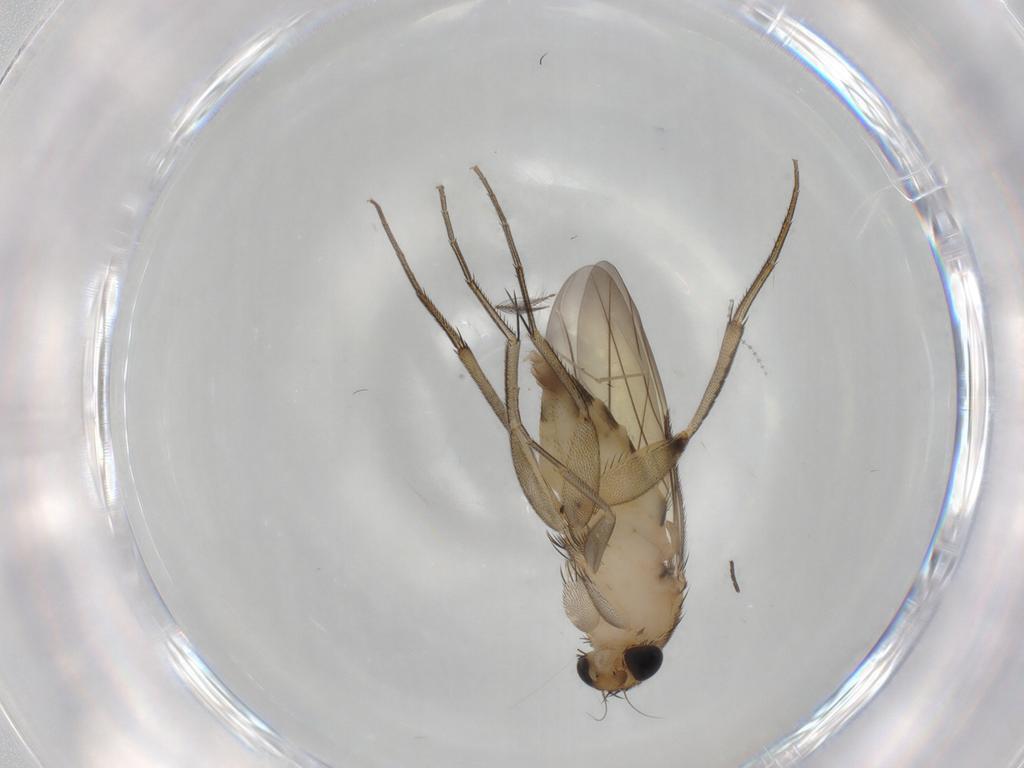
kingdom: Animalia
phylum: Arthropoda
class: Insecta
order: Diptera
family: Phoridae
